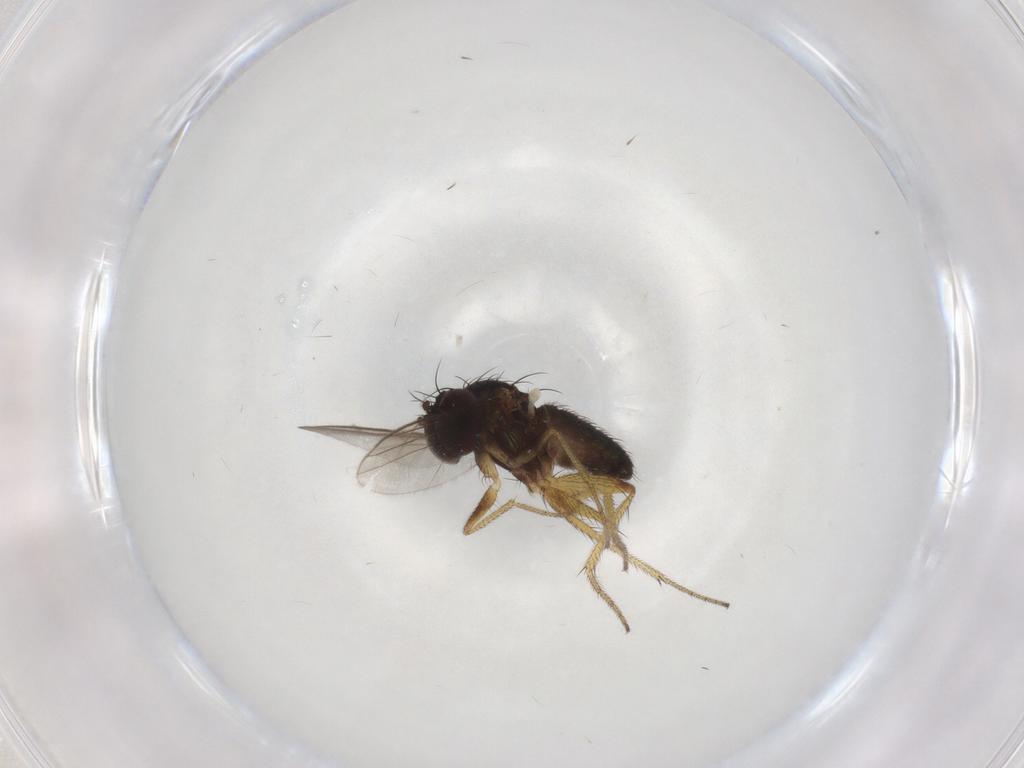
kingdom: Animalia
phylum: Arthropoda
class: Insecta
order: Diptera
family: Dolichopodidae
